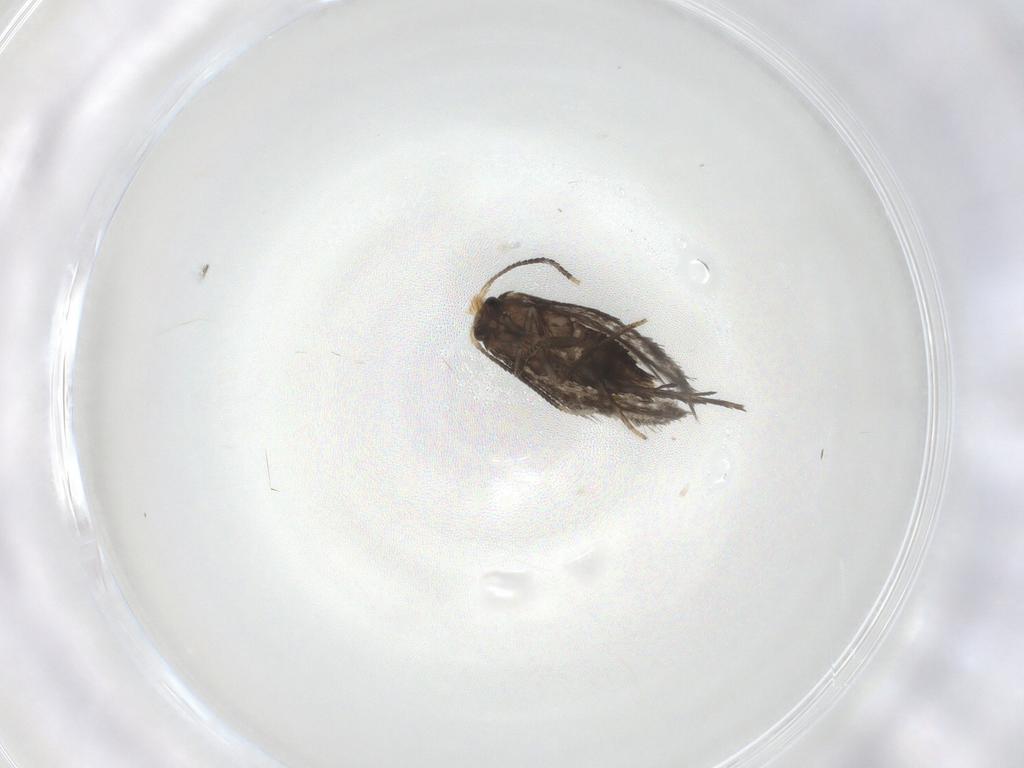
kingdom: Animalia
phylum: Arthropoda
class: Insecta
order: Lepidoptera
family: Nepticulidae
